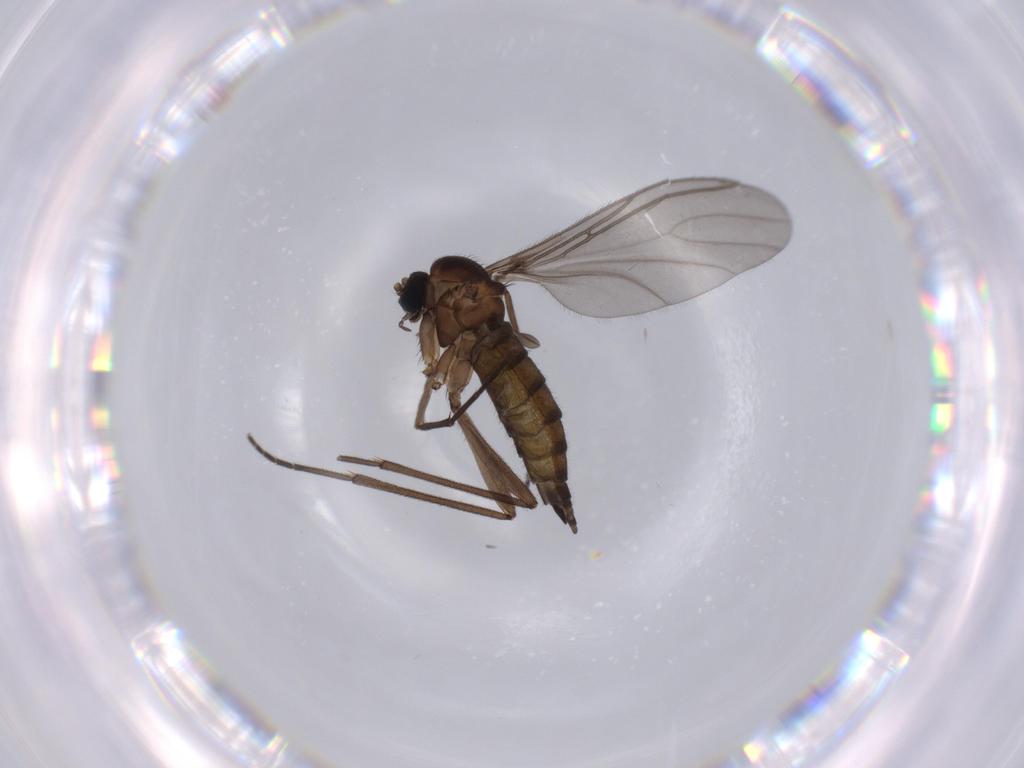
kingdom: Animalia
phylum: Arthropoda
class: Insecta
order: Diptera
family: Sciaridae
